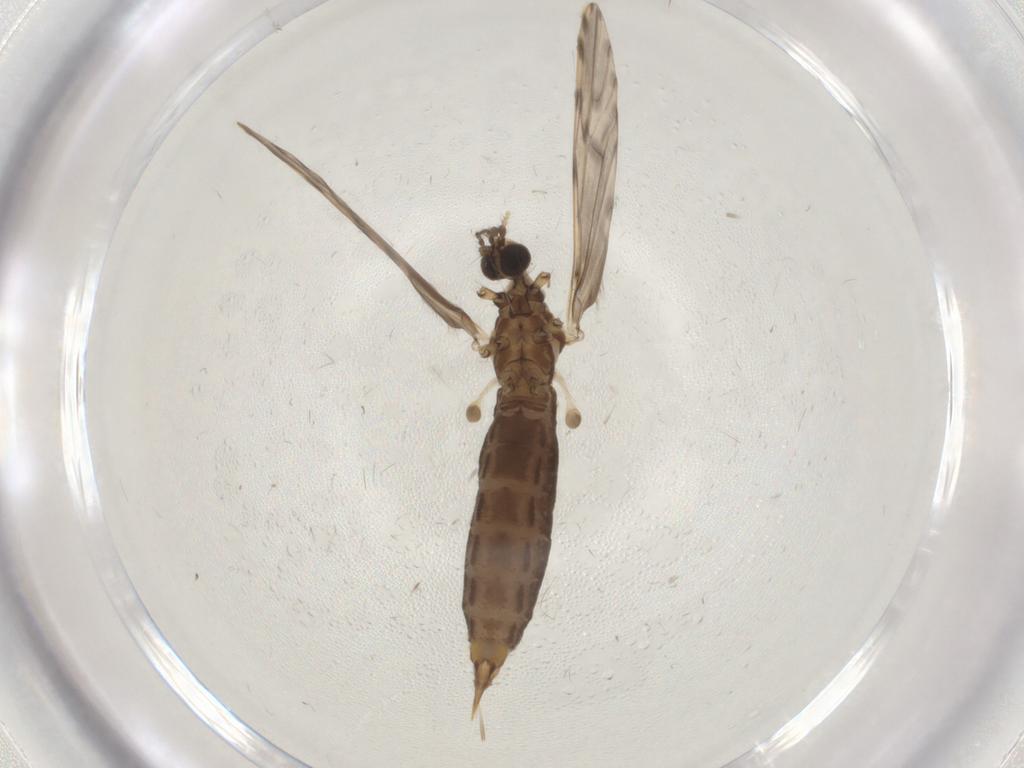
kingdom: Animalia
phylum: Arthropoda
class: Insecta
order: Diptera
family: Limoniidae
